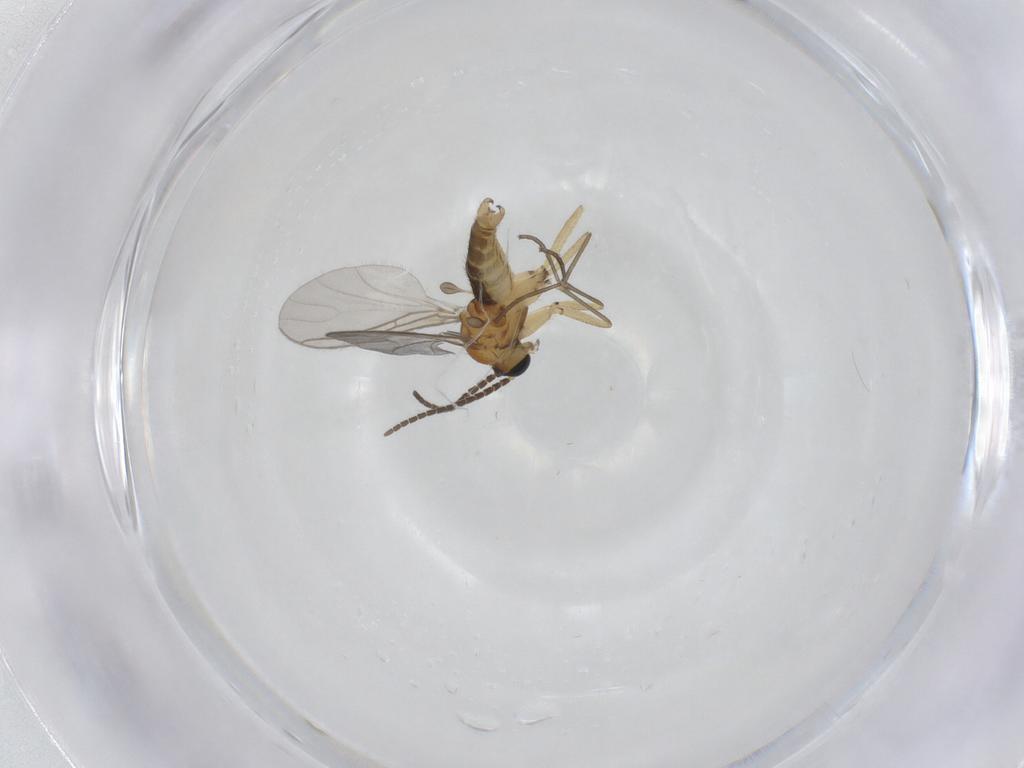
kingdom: Animalia
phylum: Arthropoda
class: Insecta
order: Diptera
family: Sciaridae
